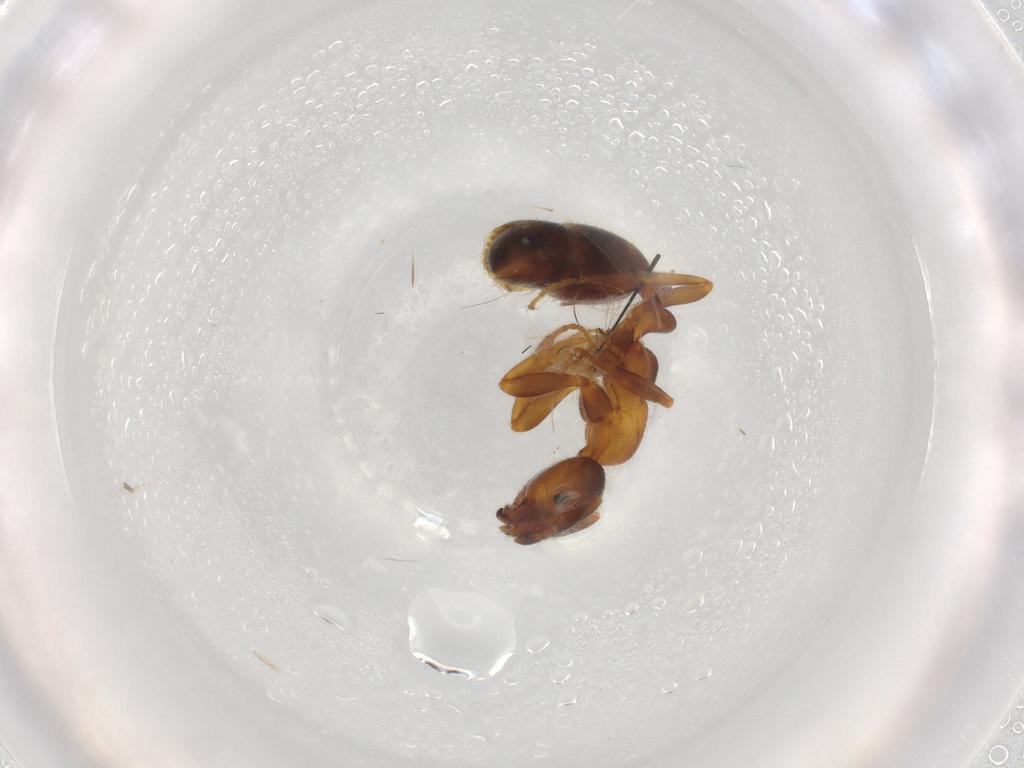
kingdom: Animalia
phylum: Arthropoda
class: Insecta
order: Hymenoptera
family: Formicidae
